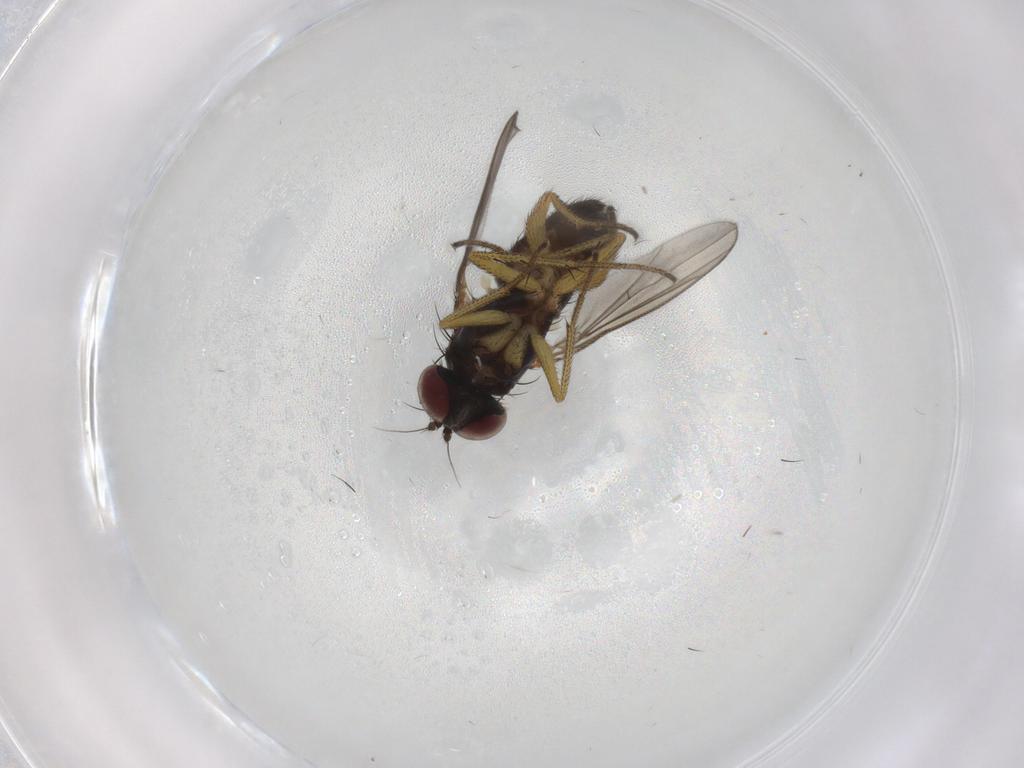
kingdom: Animalia
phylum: Arthropoda
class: Insecta
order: Diptera
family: Dolichopodidae
